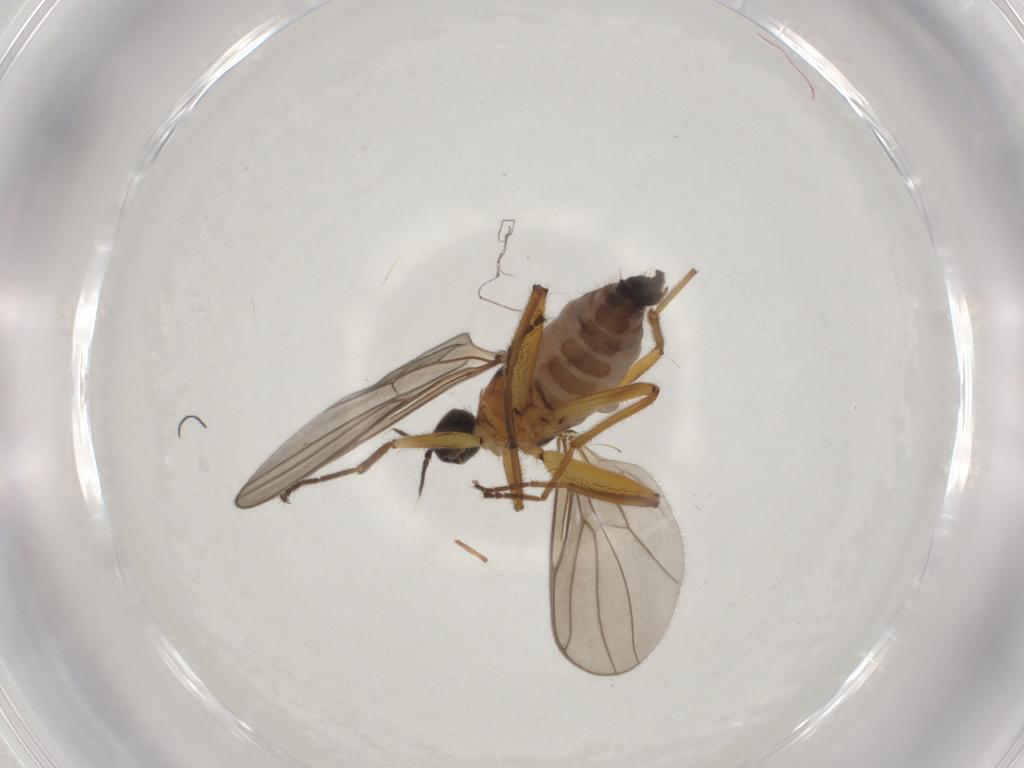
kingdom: Animalia
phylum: Arthropoda
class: Insecta
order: Diptera
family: Hybotidae
